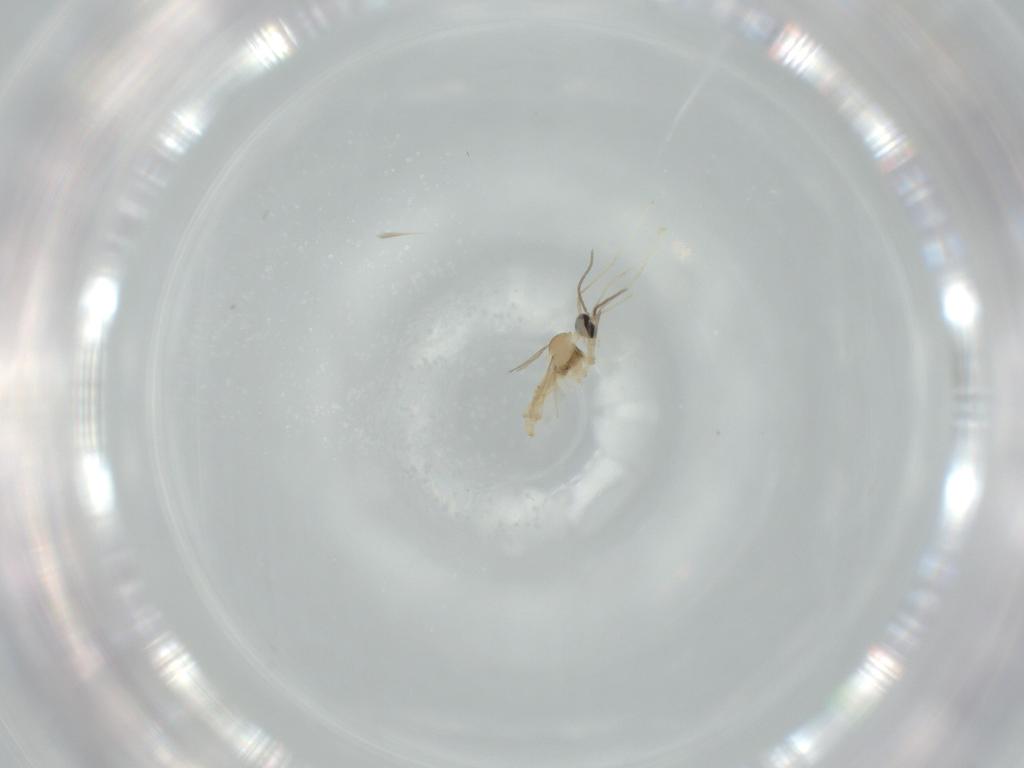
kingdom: Animalia
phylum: Arthropoda
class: Insecta
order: Diptera
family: Cecidomyiidae
